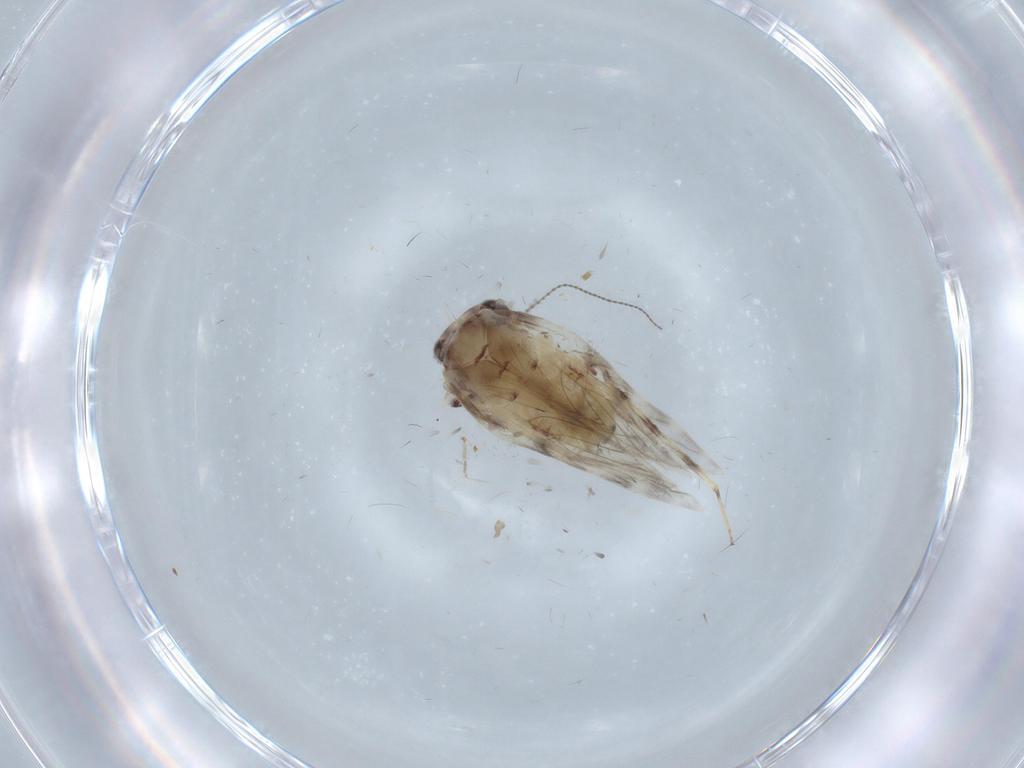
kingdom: Animalia
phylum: Arthropoda
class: Insecta
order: Psocodea
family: Lepidopsocidae
